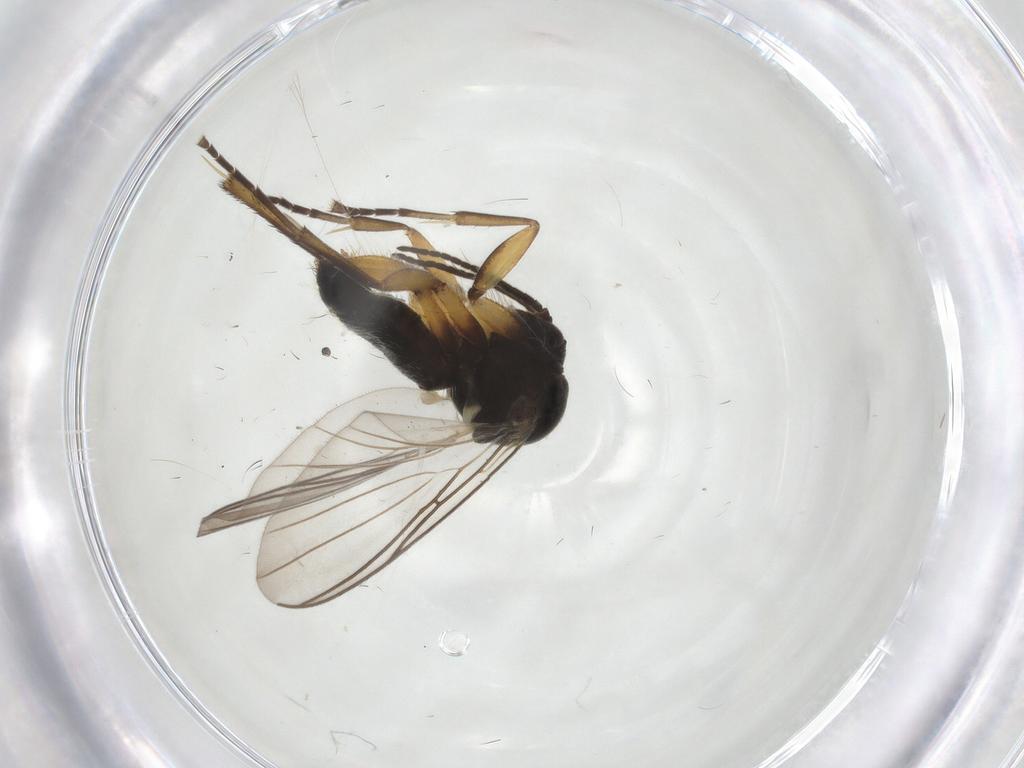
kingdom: Animalia
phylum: Arthropoda
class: Insecta
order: Diptera
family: Mycetophilidae
